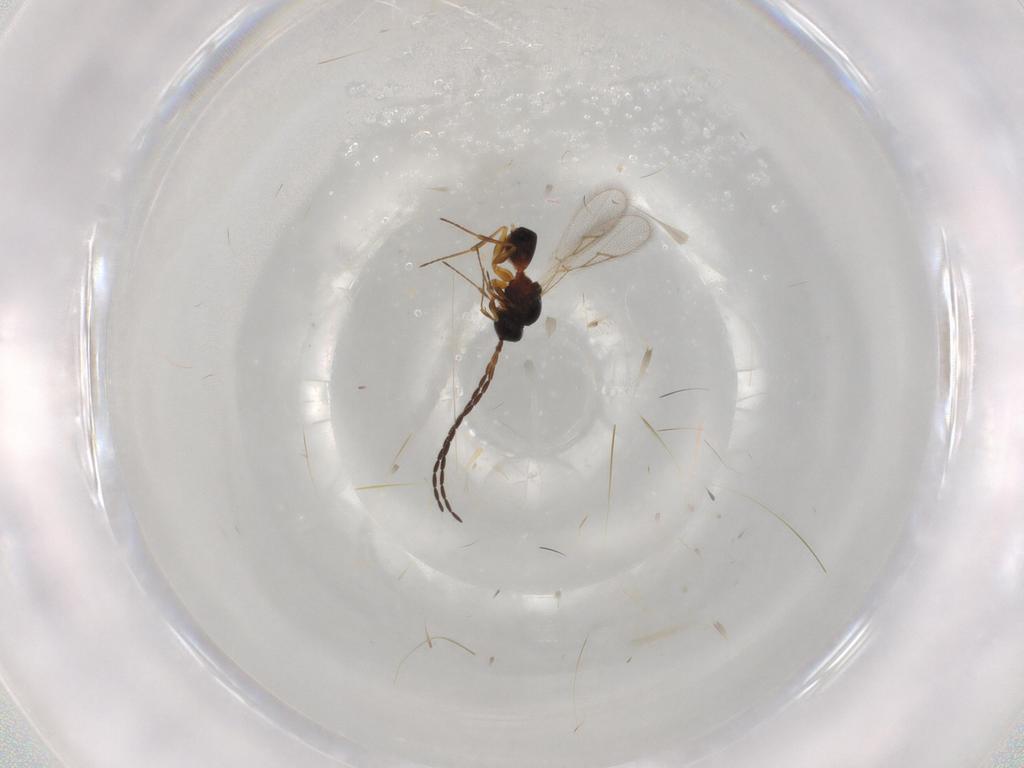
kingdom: Animalia
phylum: Arthropoda
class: Insecta
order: Hymenoptera
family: Figitidae
